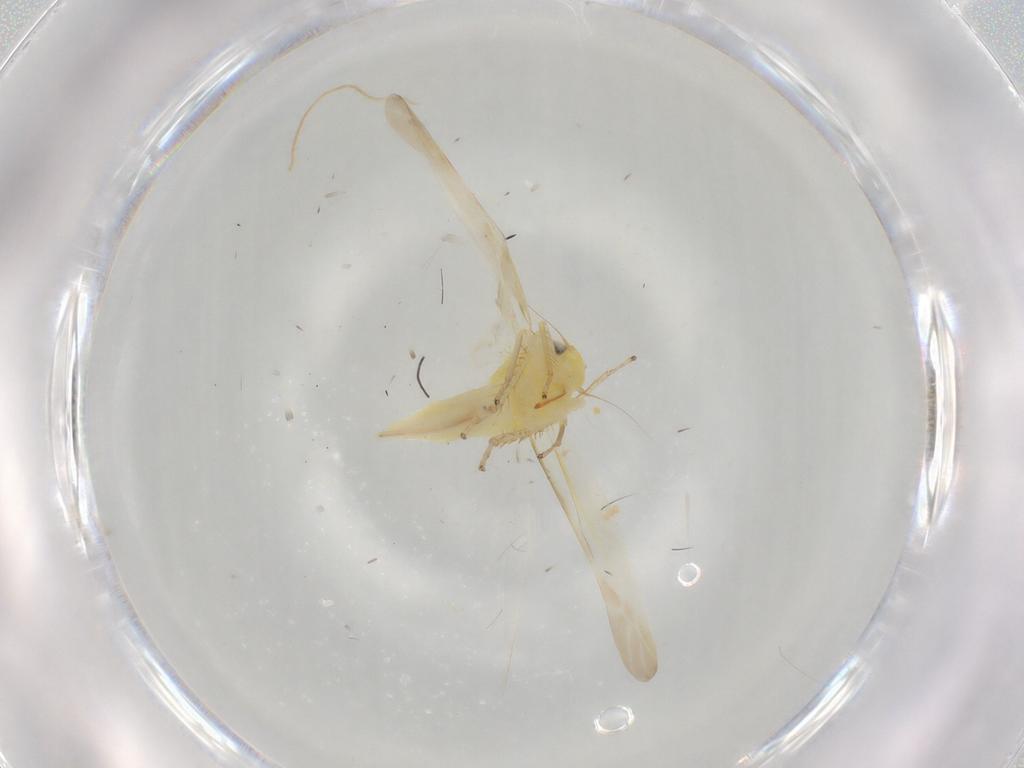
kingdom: Animalia
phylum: Arthropoda
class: Insecta
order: Hemiptera
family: Miridae
